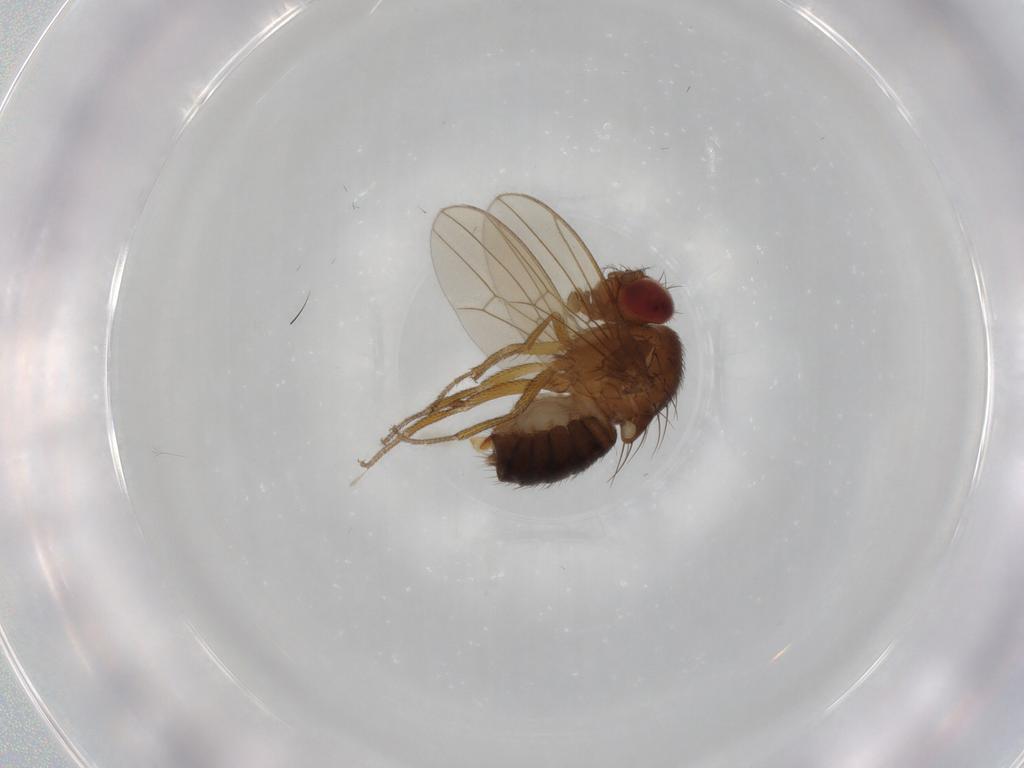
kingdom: Animalia
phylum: Arthropoda
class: Insecta
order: Diptera
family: Drosophilidae
